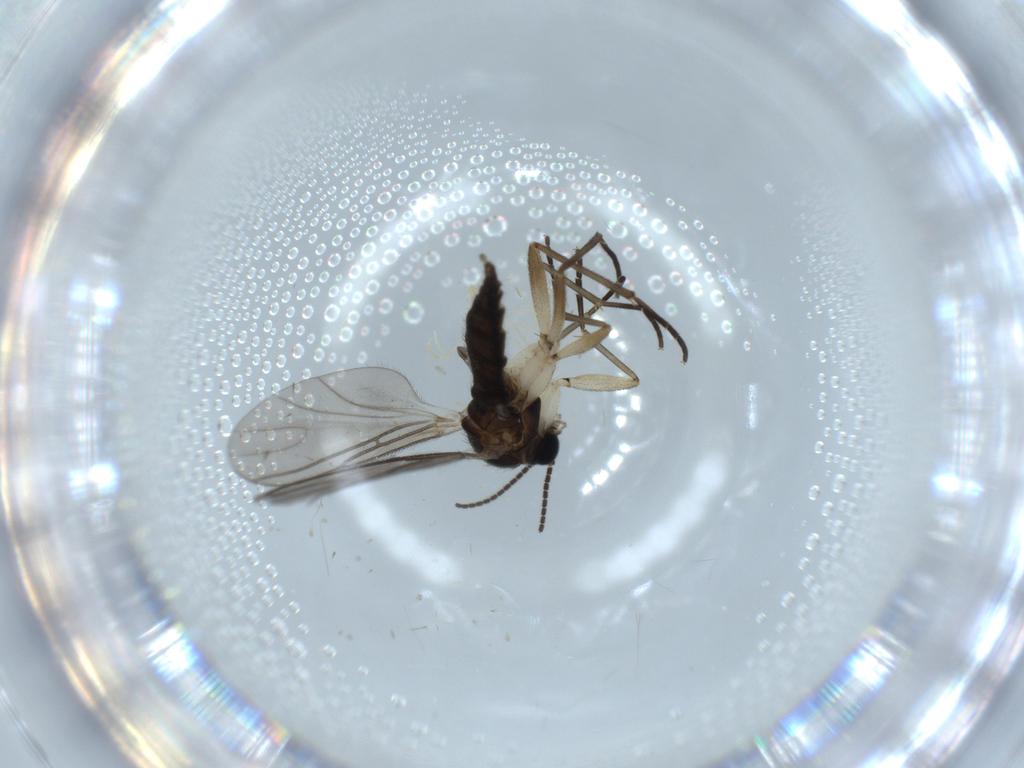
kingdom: Animalia
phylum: Arthropoda
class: Insecta
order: Diptera
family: Sciaridae
